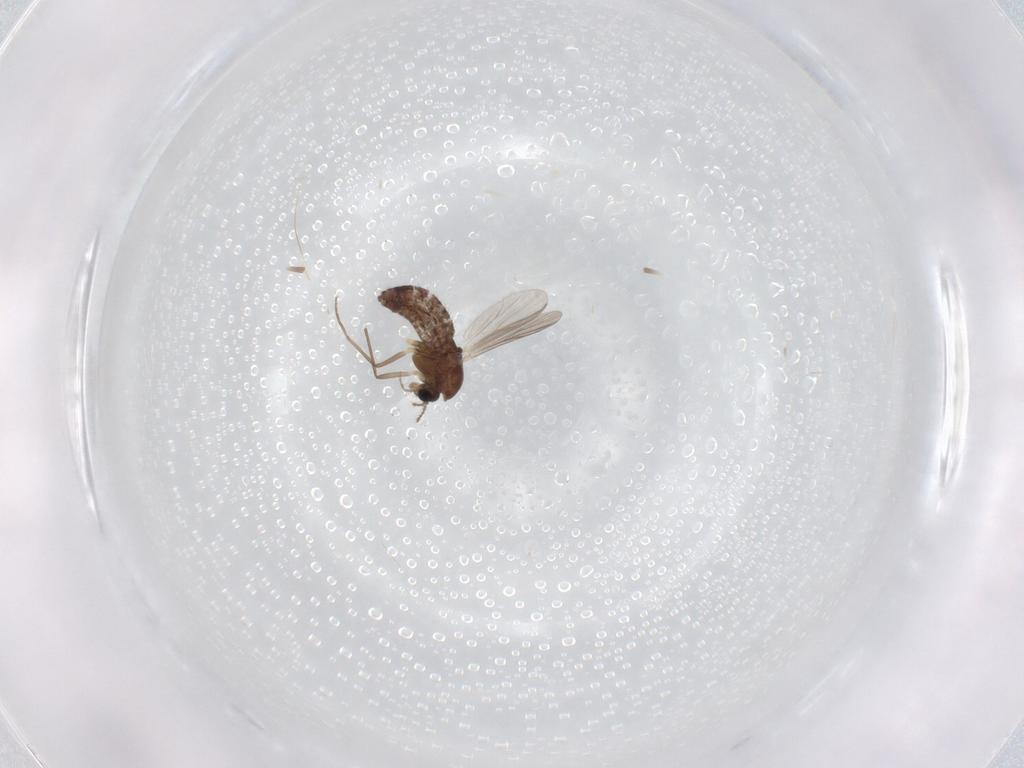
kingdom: Animalia
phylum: Arthropoda
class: Insecta
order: Diptera
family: Chironomidae
